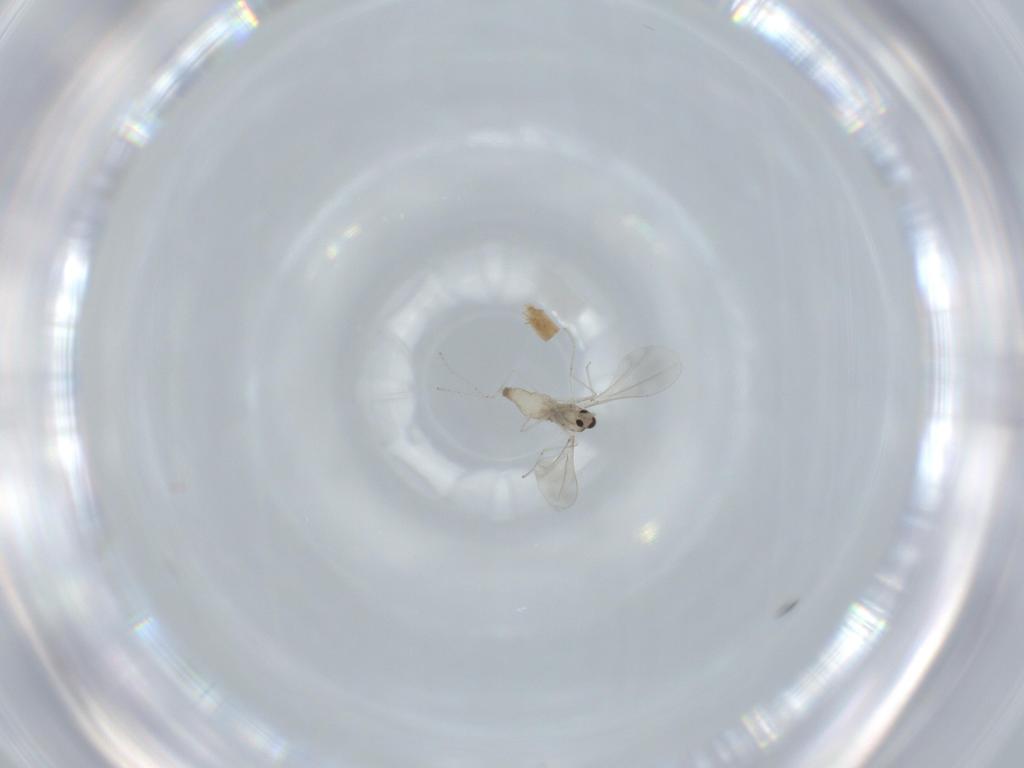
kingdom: Animalia
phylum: Arthropoda
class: Insecta
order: Diptera
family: Cecidomyiidae
